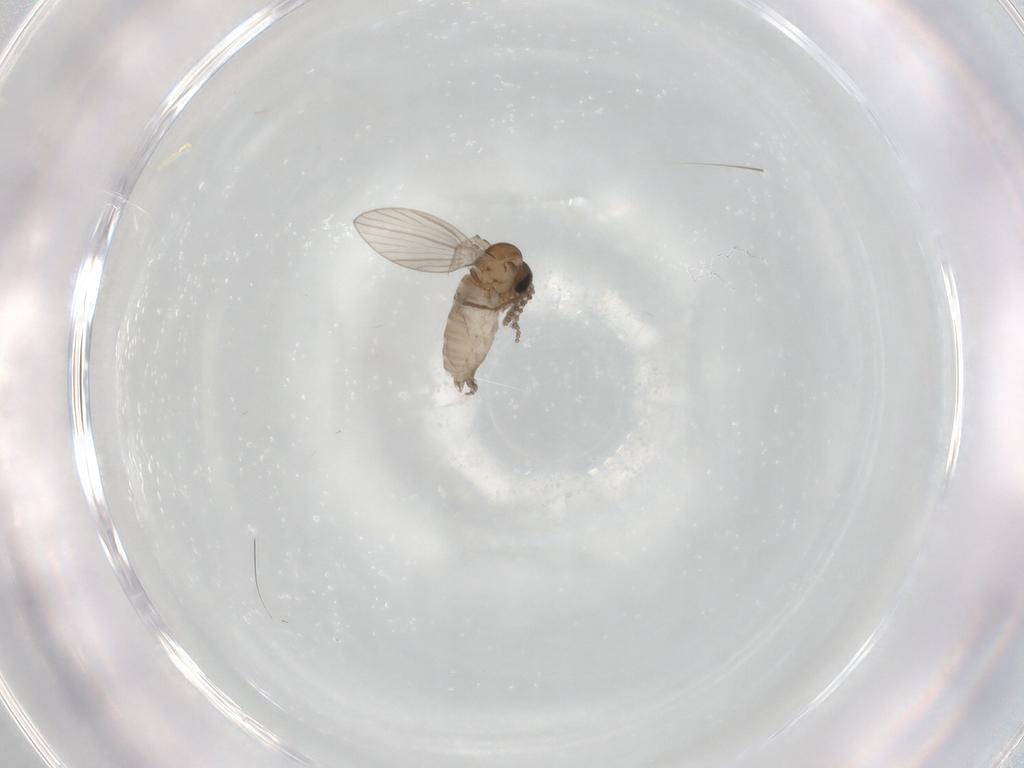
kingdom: Animalia
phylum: Arthropoda
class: Insecta
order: Diptera
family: Psychodidae
